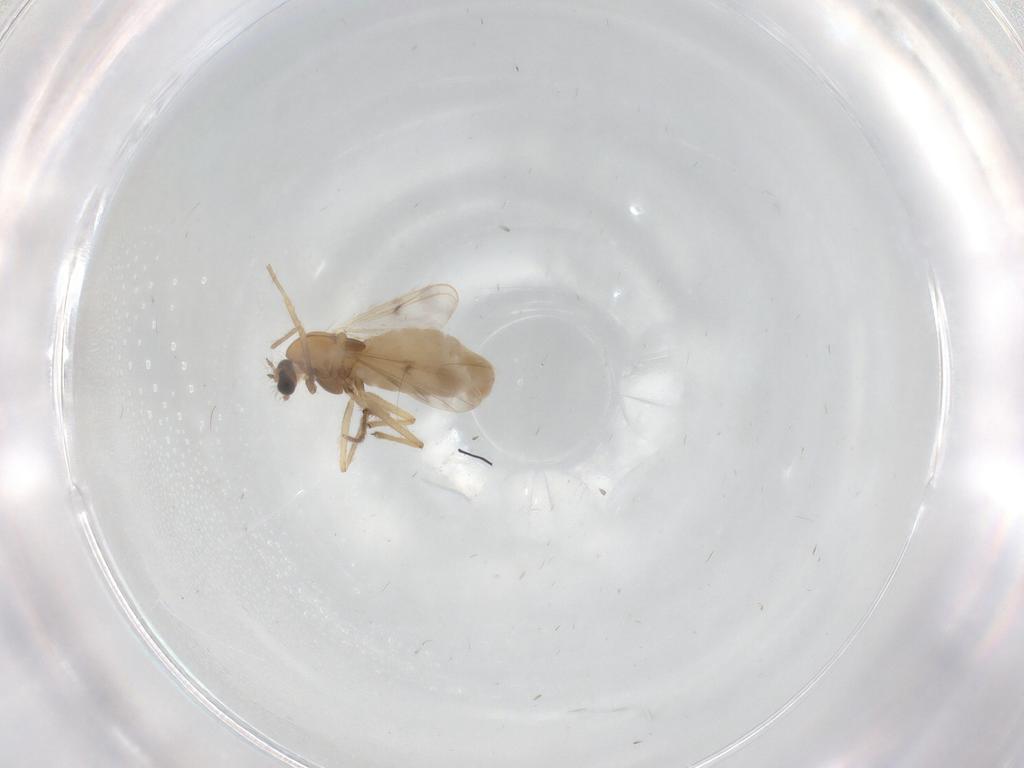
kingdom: Animalia
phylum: Arthropoda
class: Insecta
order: Diptera
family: Chironomidae
